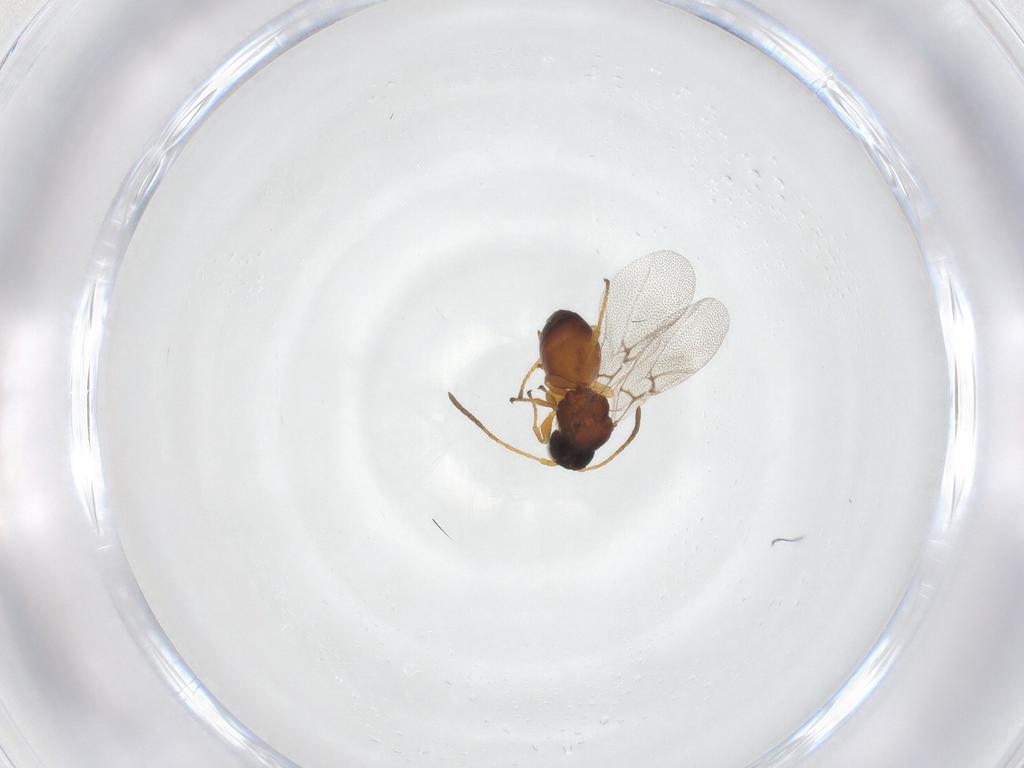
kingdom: Animalia
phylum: Arthropoda
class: Insecta
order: Hymenoptera
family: Cynipidae
